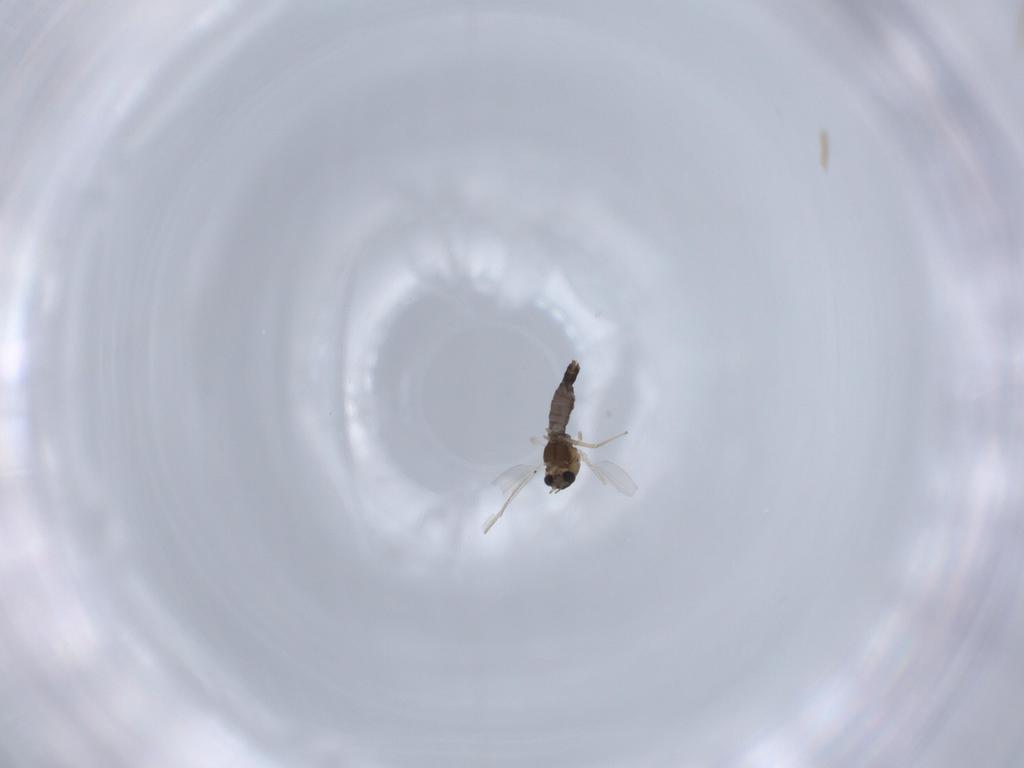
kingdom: Animalia
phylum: Arthropoda
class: Insecta
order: Diptera
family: Chironomidae
